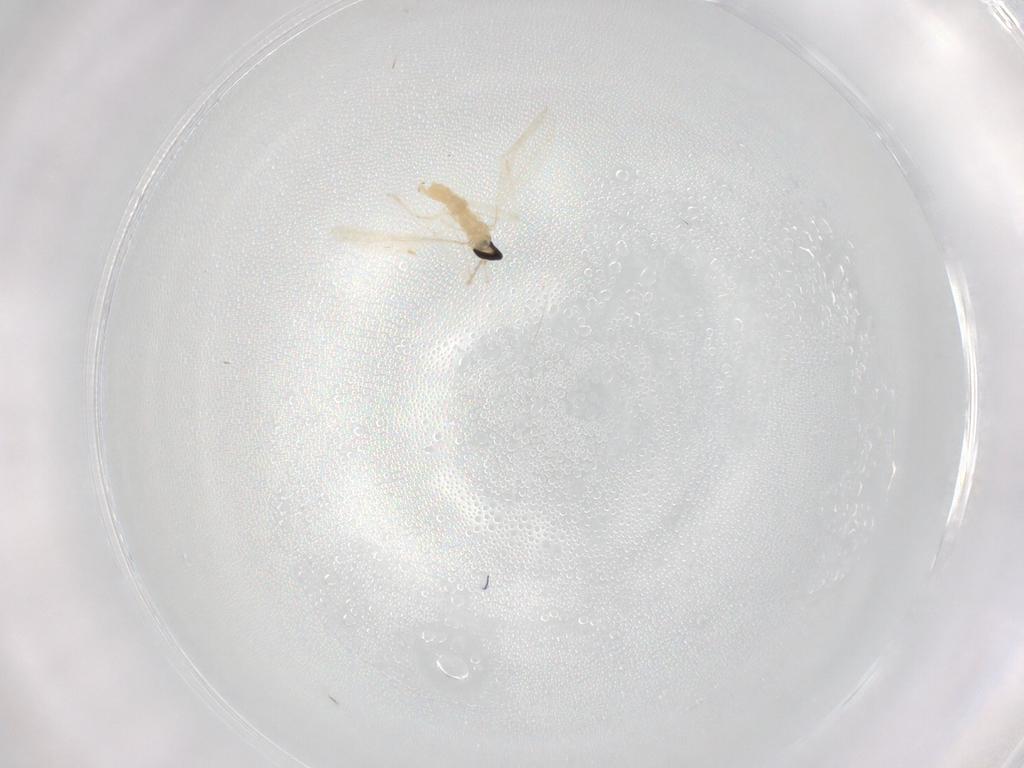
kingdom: Animalia
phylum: Arthropoda
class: Insecta
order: Diptera
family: Cecidomyiidae
